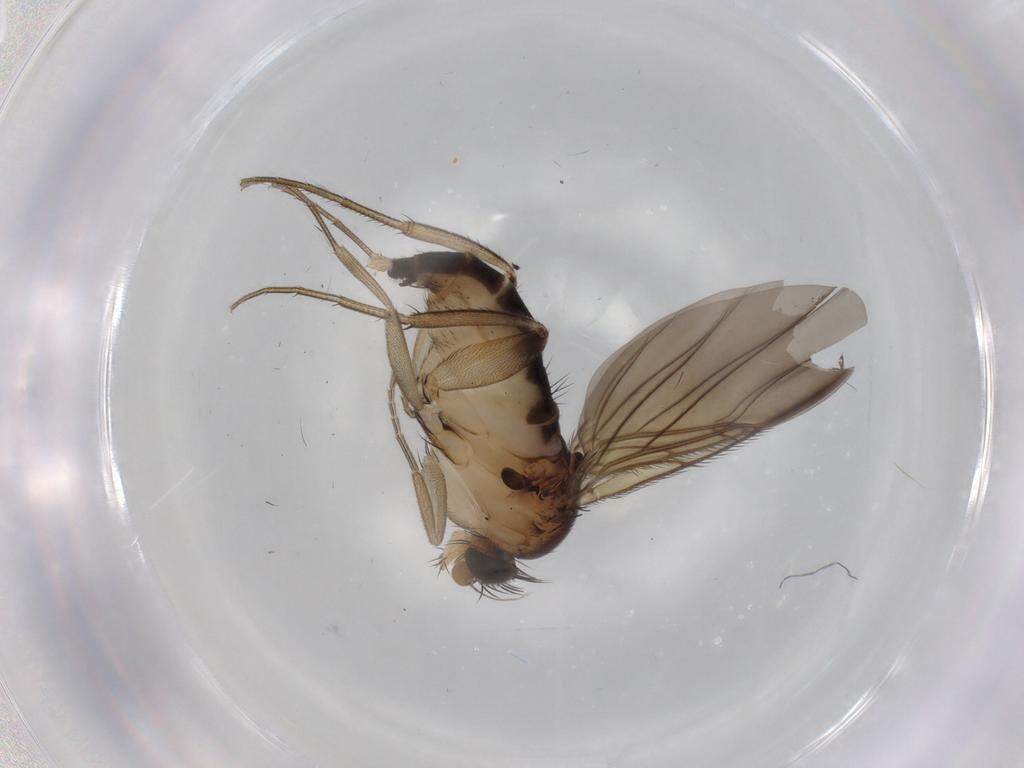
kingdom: Animalia
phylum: Arthropoda
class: Insecta
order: Diptera
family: Phoridae
